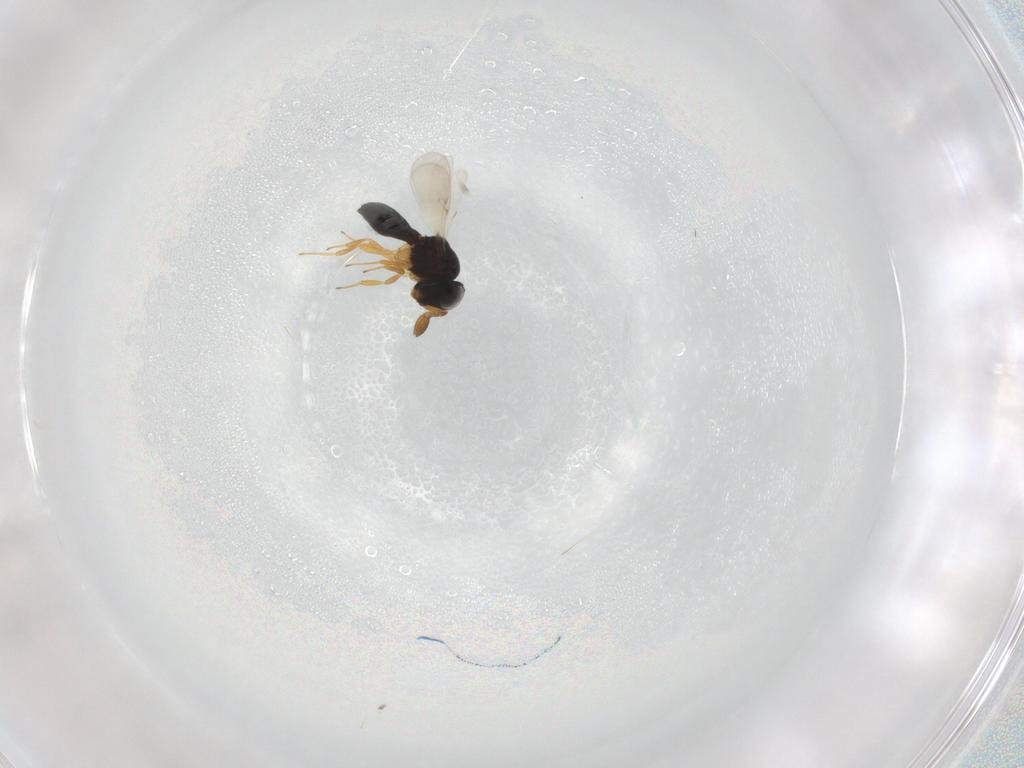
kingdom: Animalia
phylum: Arthropoda
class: Insecta
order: Hymenoptera
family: Scelionidae
